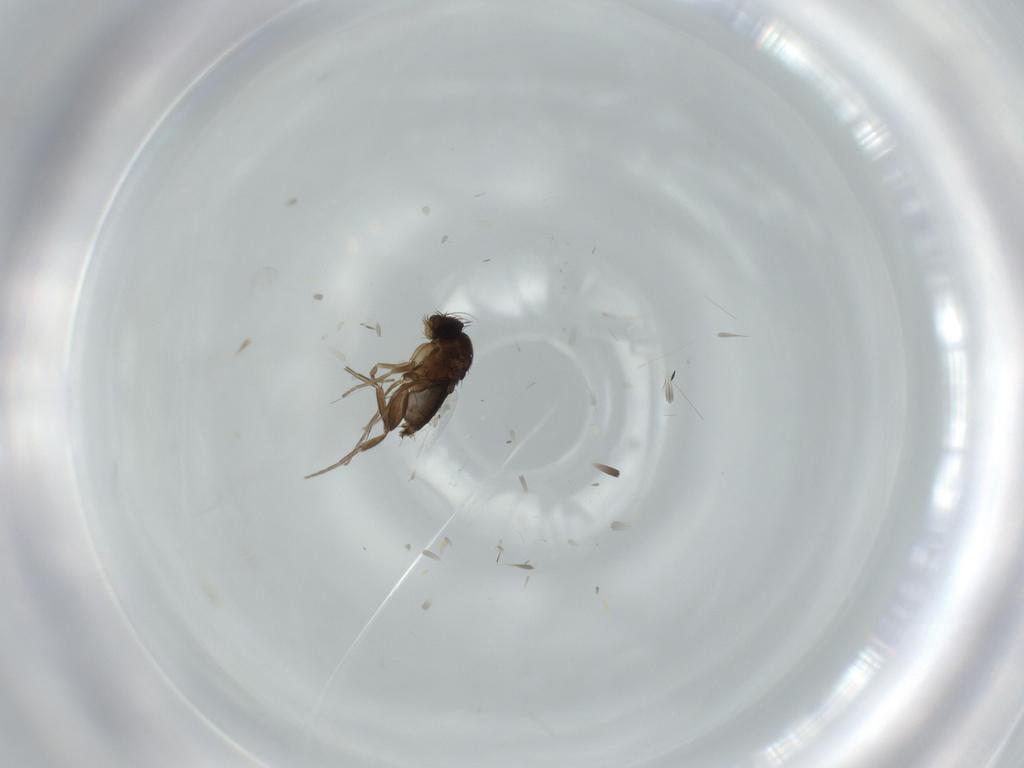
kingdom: Animalia
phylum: Arthropoda
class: Insecta
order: Diptera
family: Phoridae
